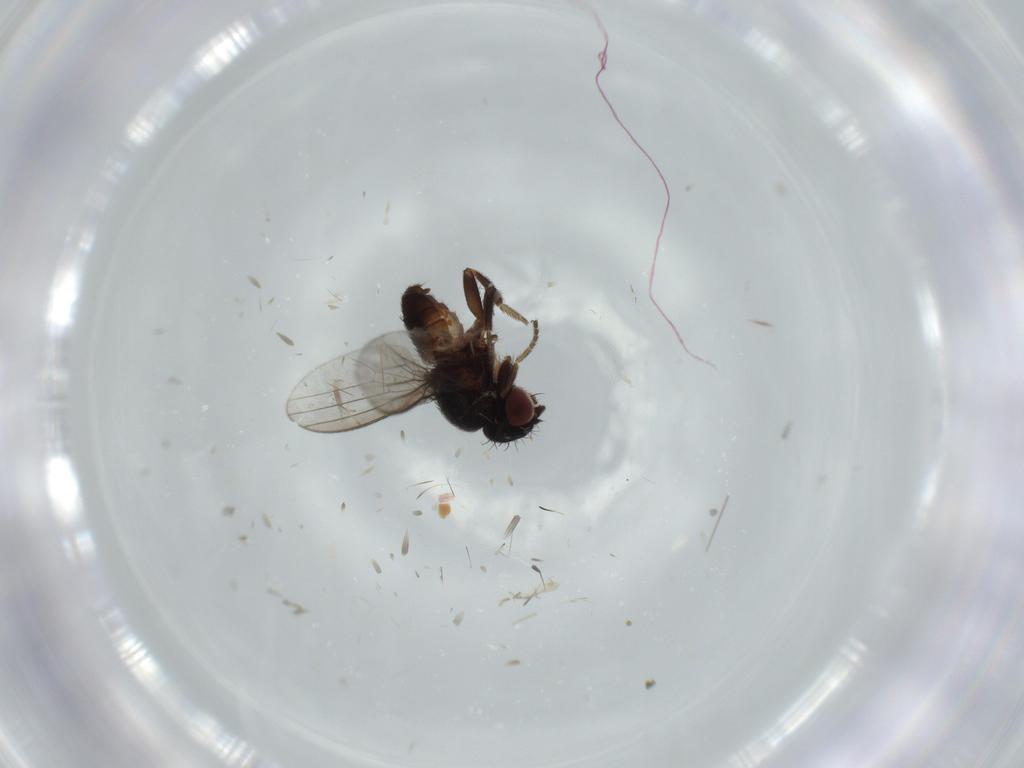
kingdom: Animalia
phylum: Arthropoda
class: Insecta
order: Diptera
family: Milichiidae
